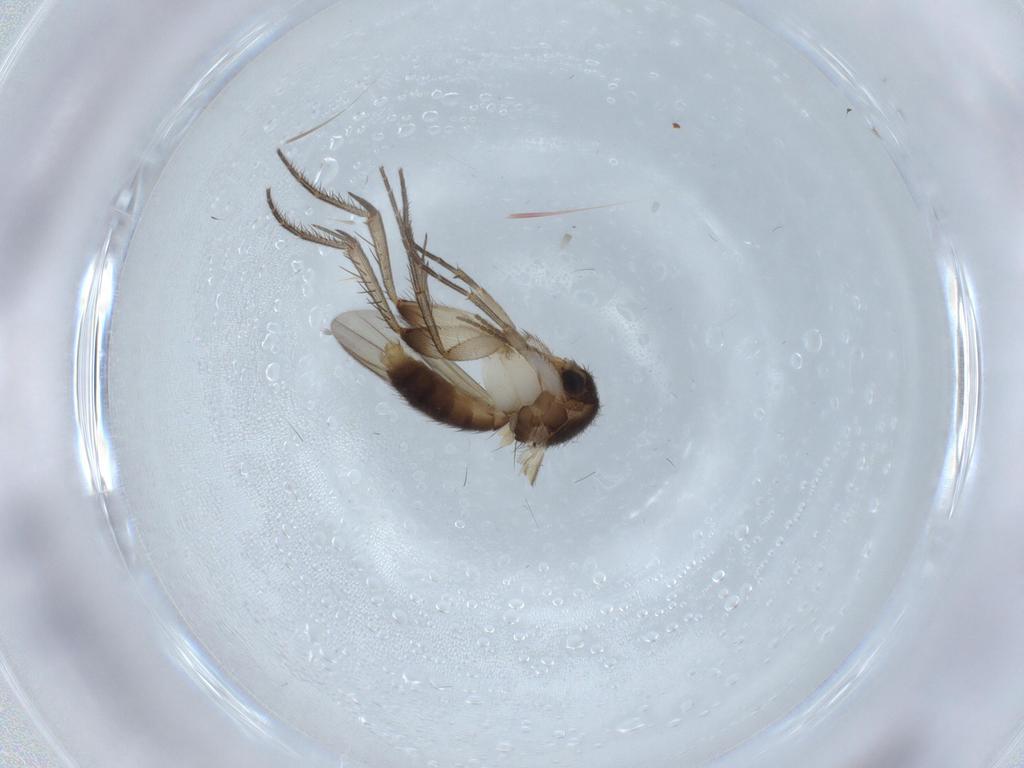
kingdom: Animalia
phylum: Arthropoda
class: Insecta
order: Diptera
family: Mycetophilidae
